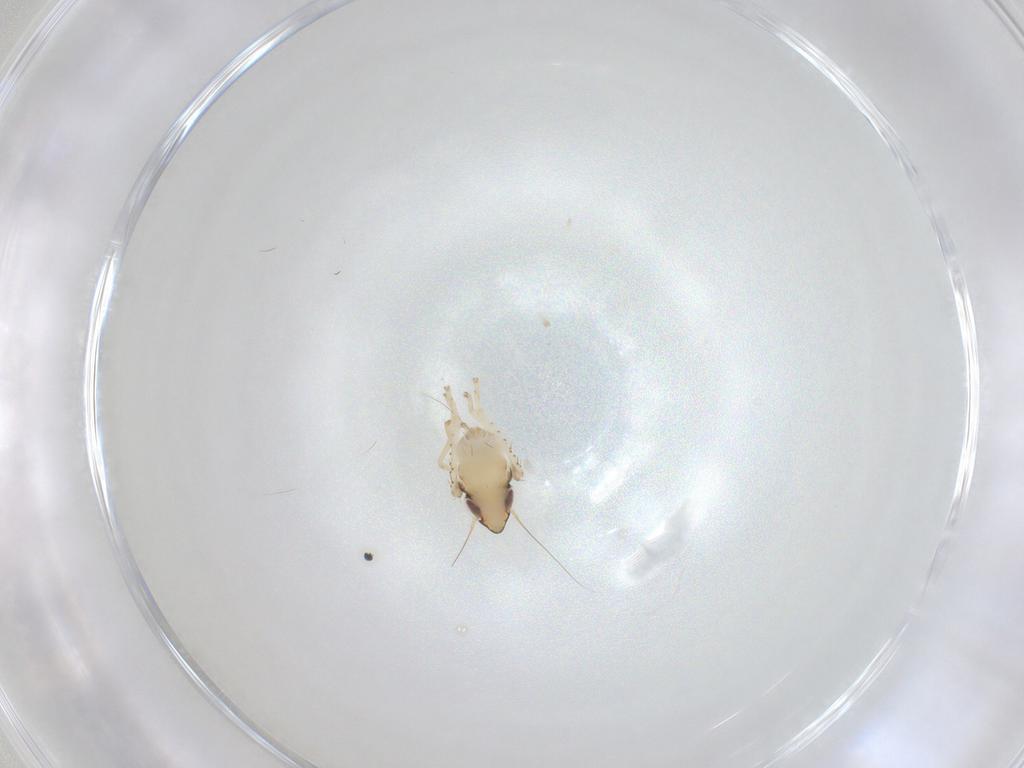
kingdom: Animalia
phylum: Arthropoda
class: Insecta
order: Hemiptera
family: Cicadellidae
